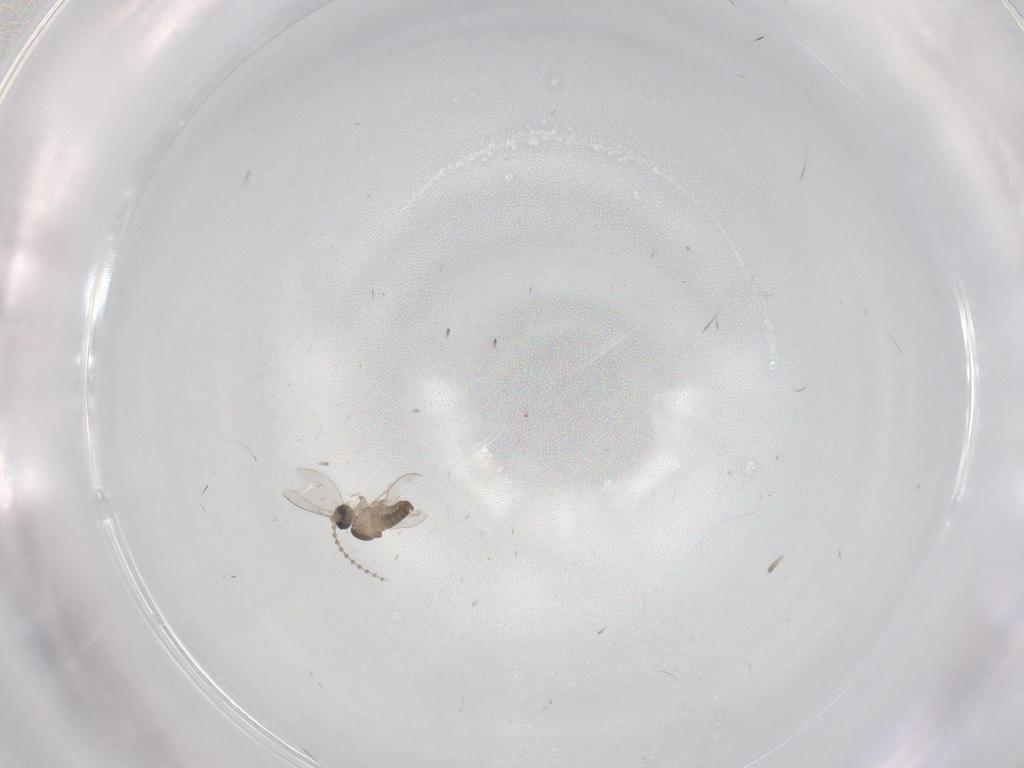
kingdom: Animalia
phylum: Arthropoda
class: Insecta
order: Diptera
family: Cecidomyiidae
